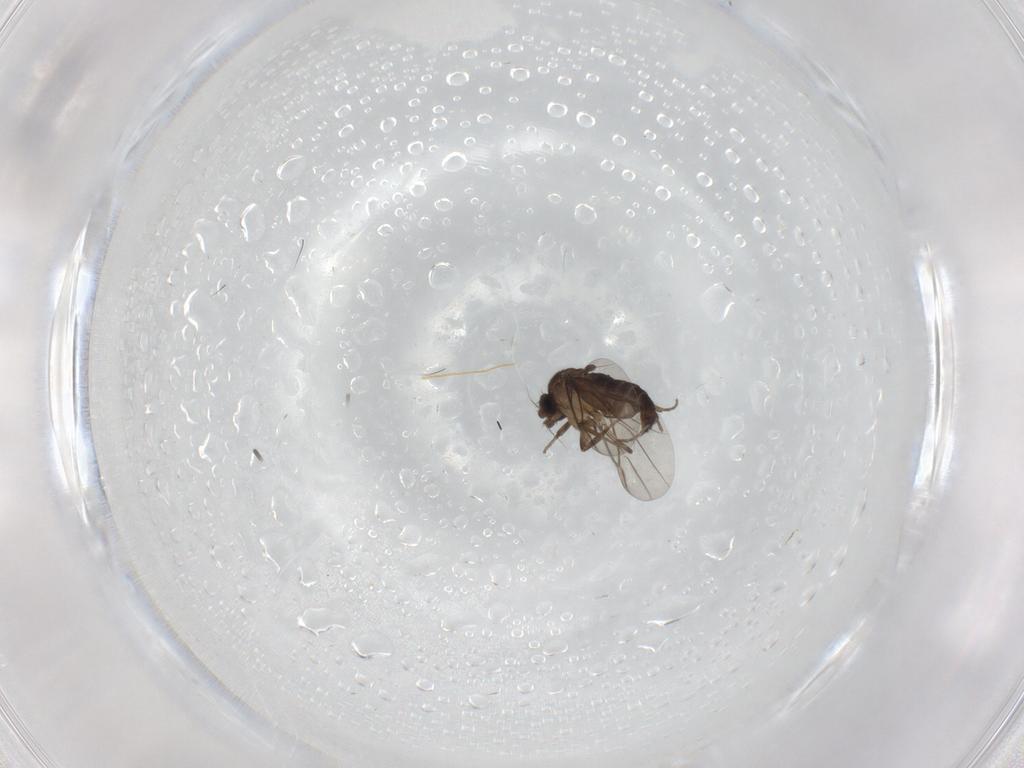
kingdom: Animalia
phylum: Arthropoda
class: Insecta
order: Diptera
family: Phoridae
